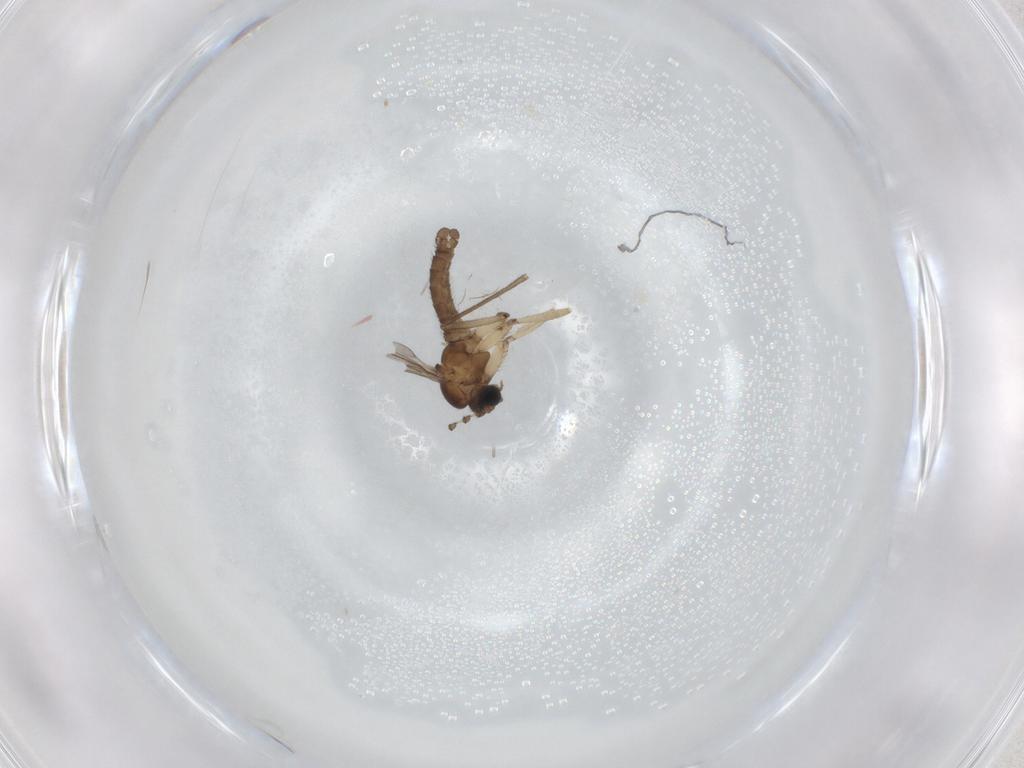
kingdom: Animalia
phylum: Arthropoda
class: Insecta
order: Diptera
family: Sciaridae
